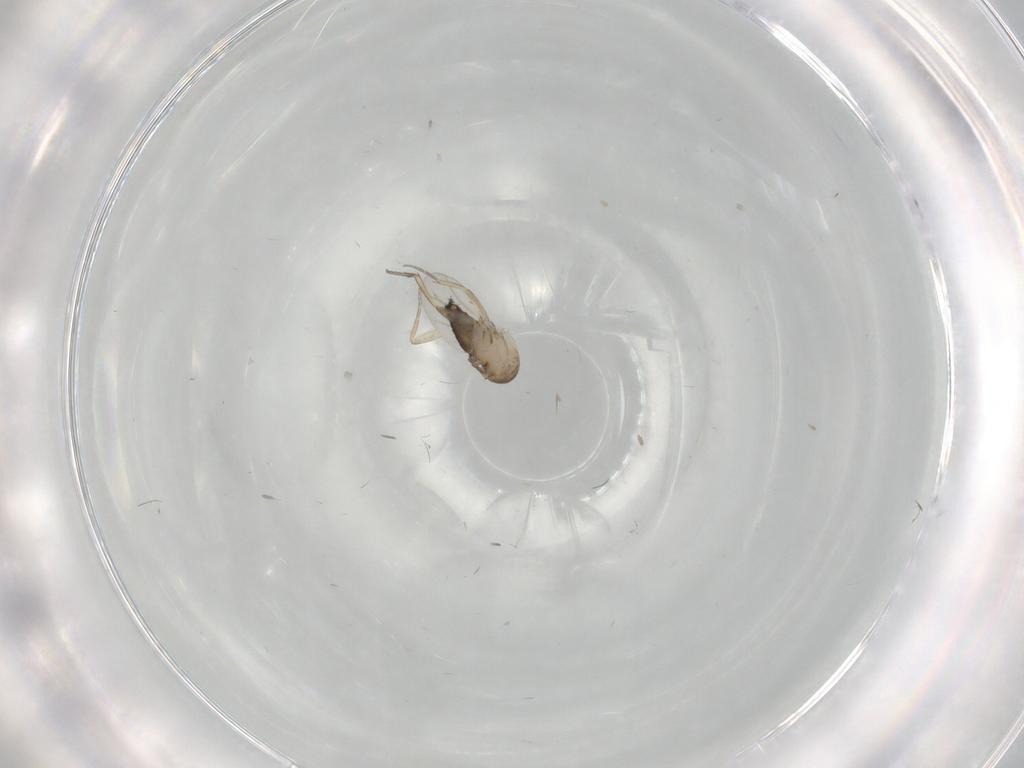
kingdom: Animalia
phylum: Arthropoda
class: Insecta
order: Diptera
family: Phoridae
